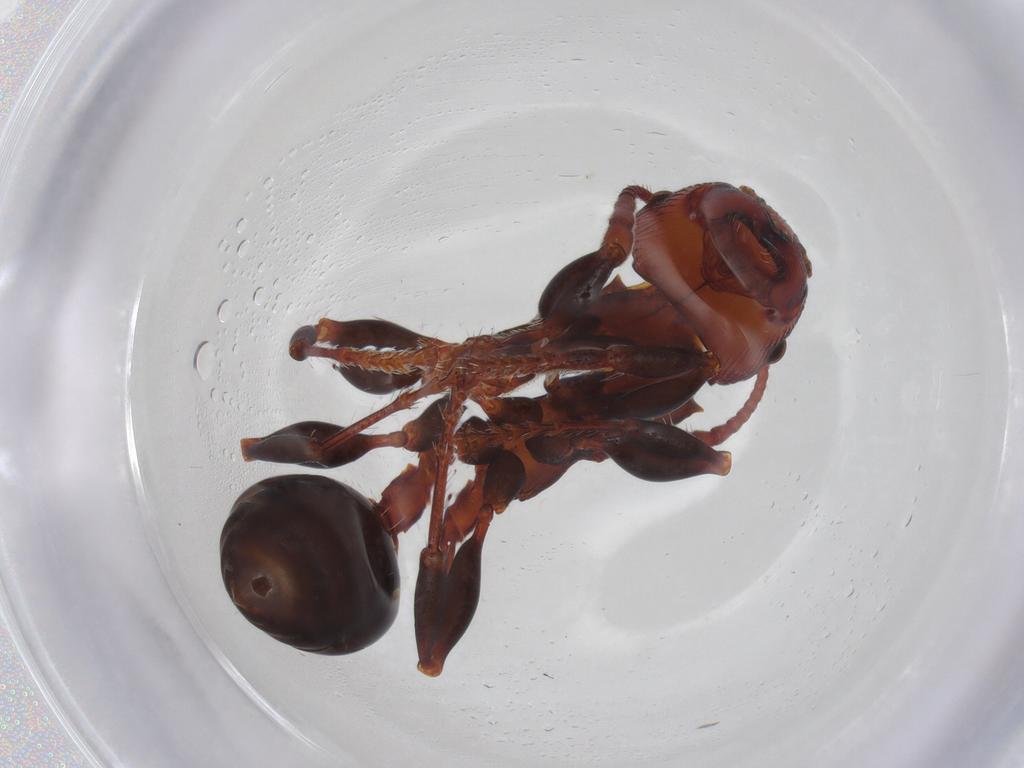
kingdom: Animalia
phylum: Arthropoda
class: Insecta
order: Hymenoptera
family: Formicidae
